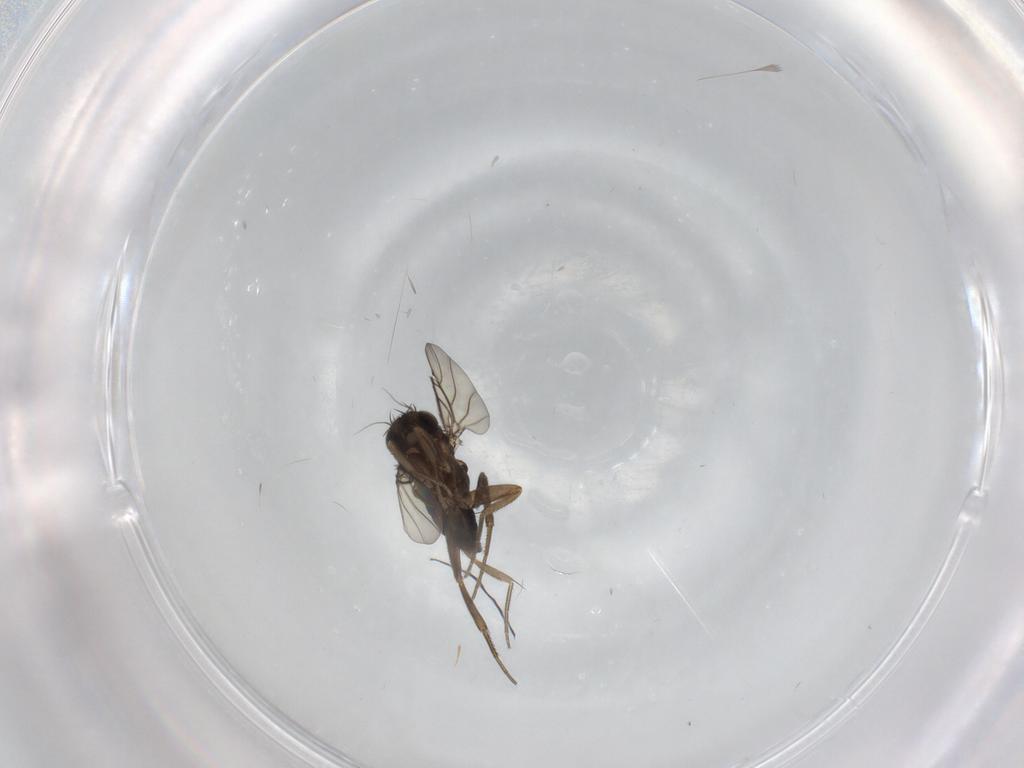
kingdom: Animalia
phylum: Arthropoda
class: Insecta
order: Diptera
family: Phoridae
